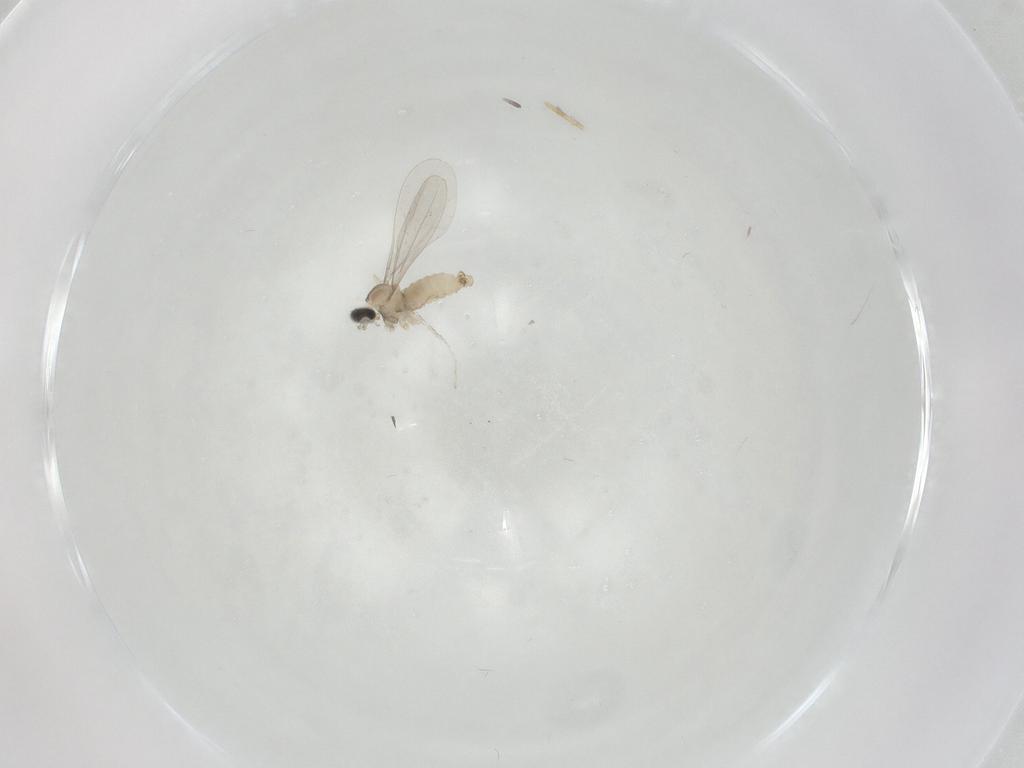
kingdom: Animalia
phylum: Arthropoda
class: Insecta
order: Diptera
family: Cecidomyiidae
